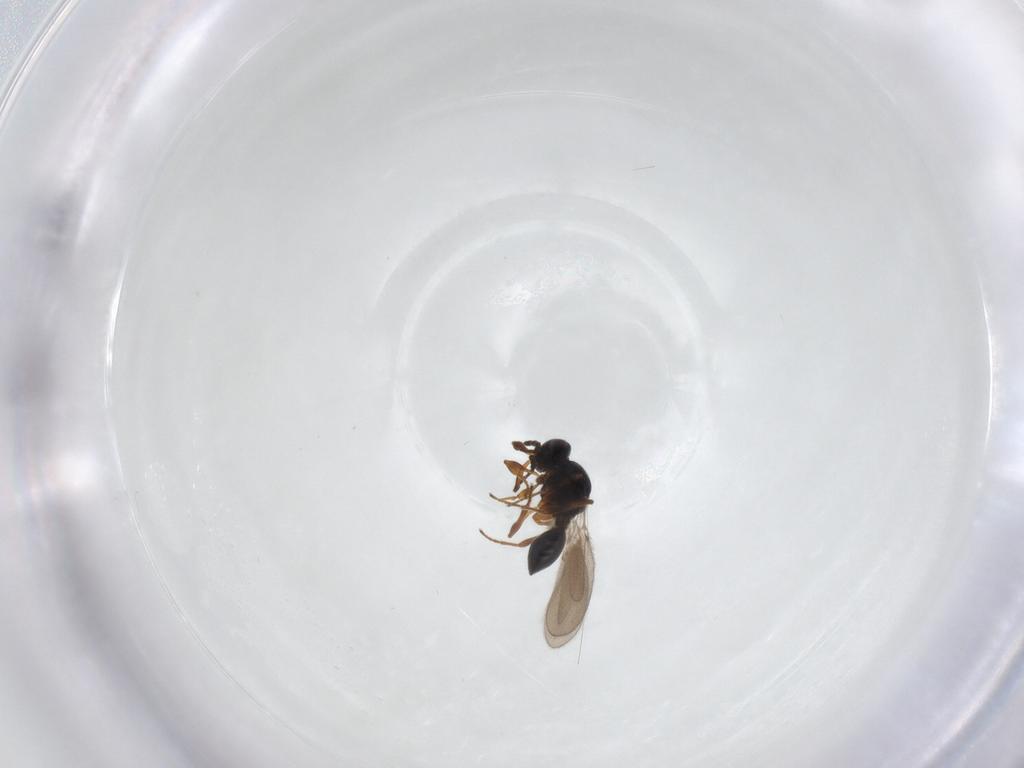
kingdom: Animalia
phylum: Arthropoda
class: Insecta
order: Hymenoptera
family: Platygastridae
